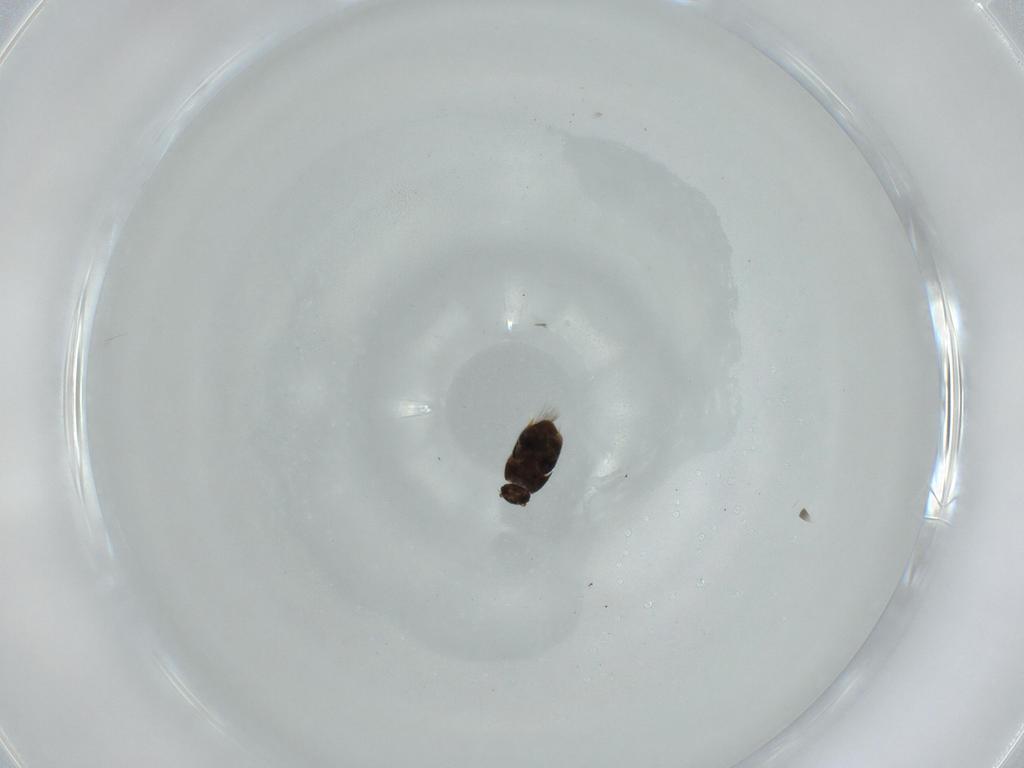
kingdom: Animalia
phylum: Arthropoda
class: Insecta
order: Coleoptera
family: Ptiliidae
